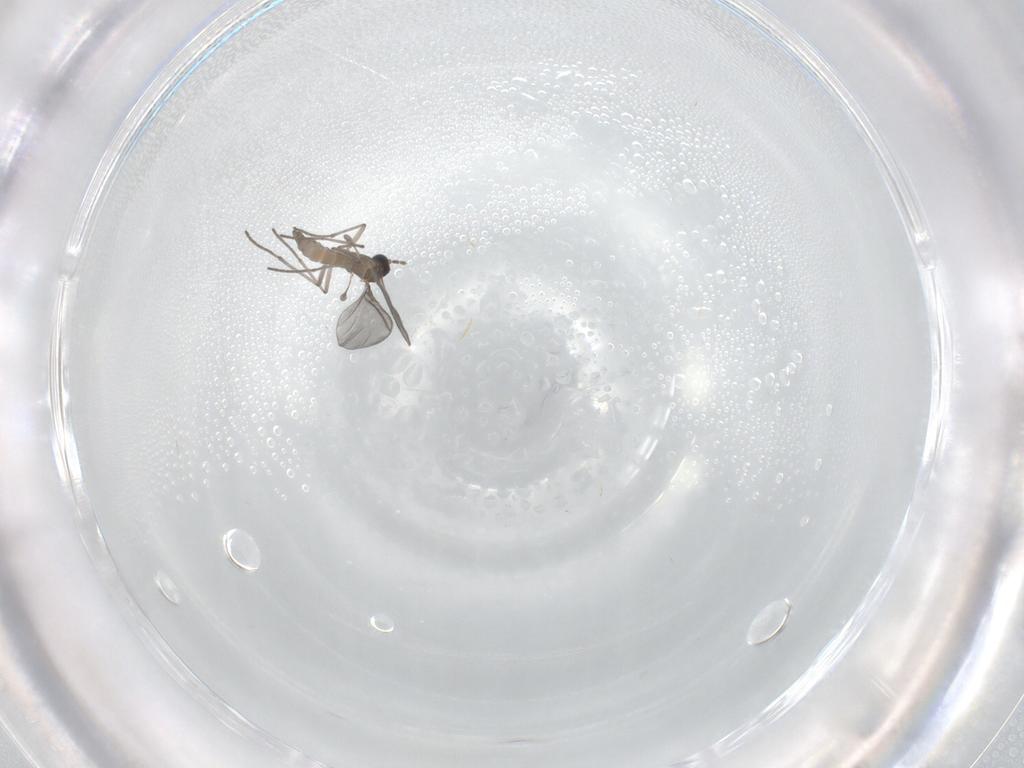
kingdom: Animalia
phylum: Arthropoda
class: Insecta
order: Diptera
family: Sciaridae
